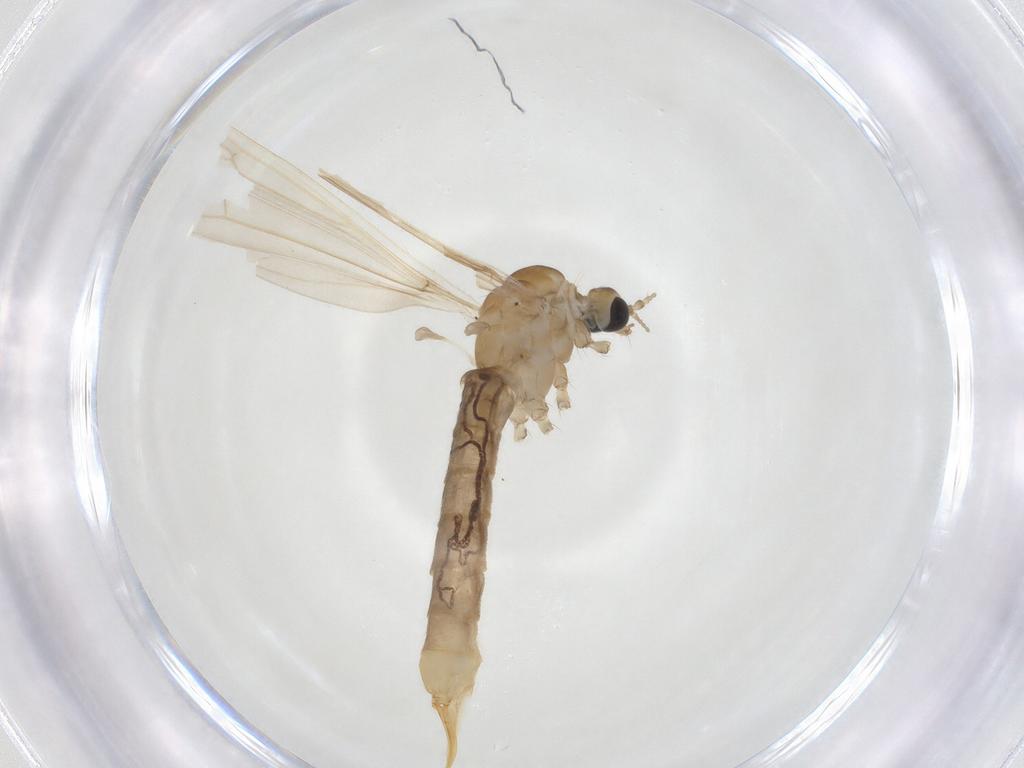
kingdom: Animalia
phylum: Arthropoda
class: Insecta
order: Diptera
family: Limoniidae
